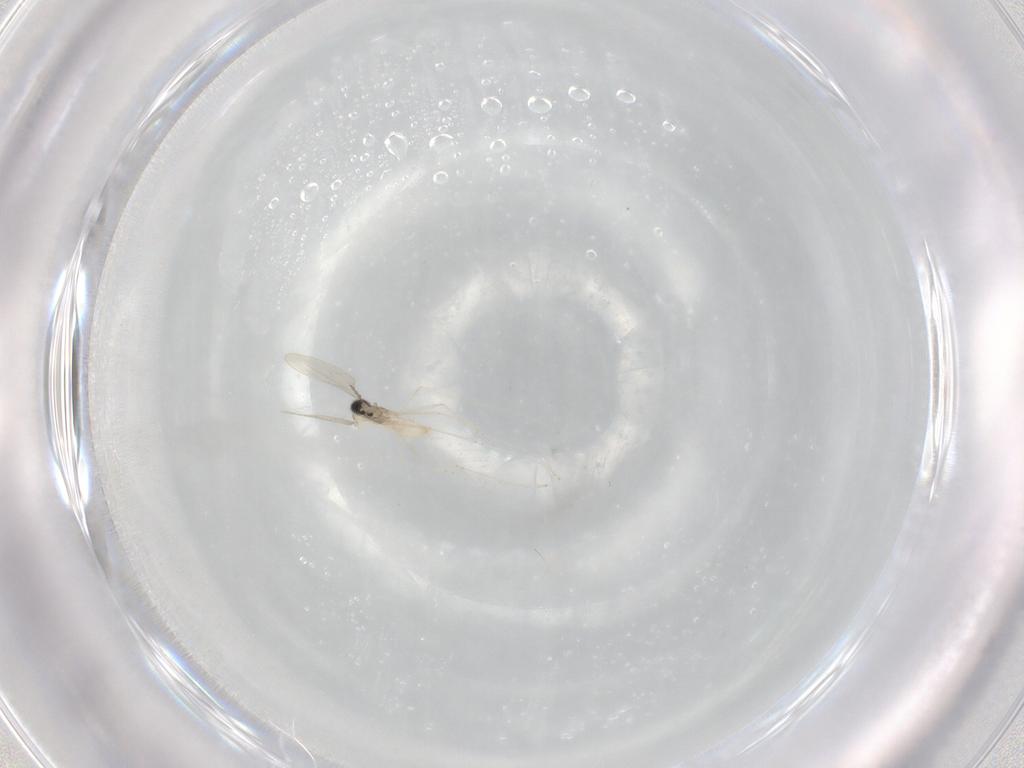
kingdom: Animalia
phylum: Arthropoda
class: Insecta
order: Diptera
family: Cecidomyiidae
